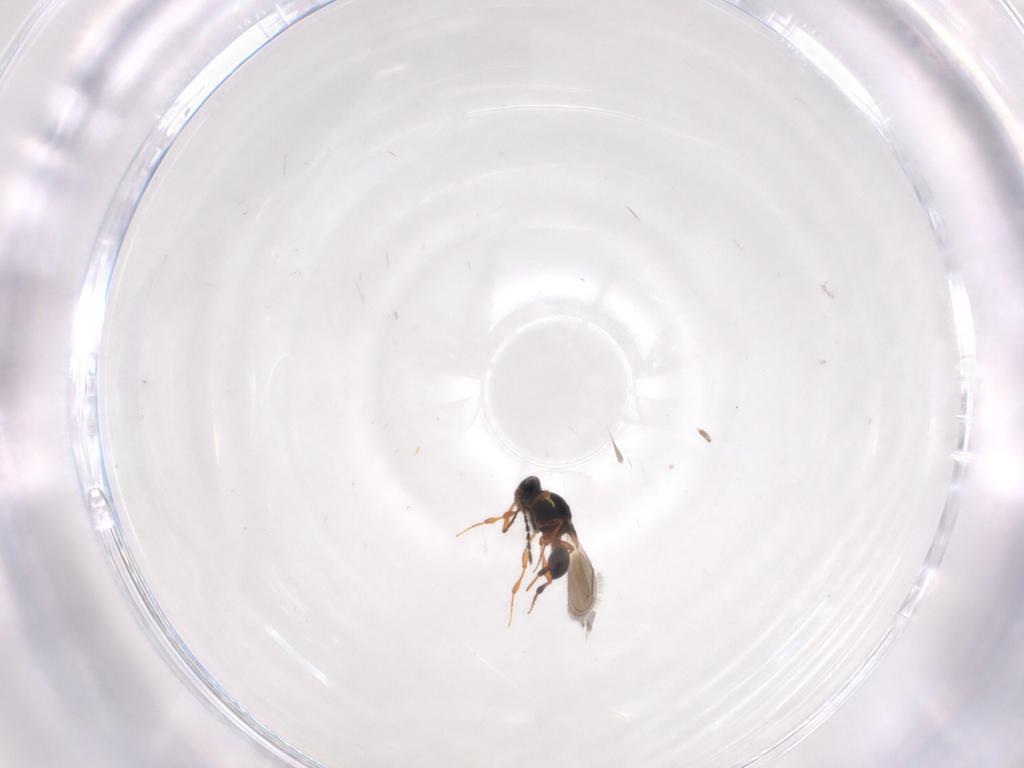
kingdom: Animalia
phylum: Arthropoda
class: Insecta
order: Hymenoptera
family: Platygastridae
